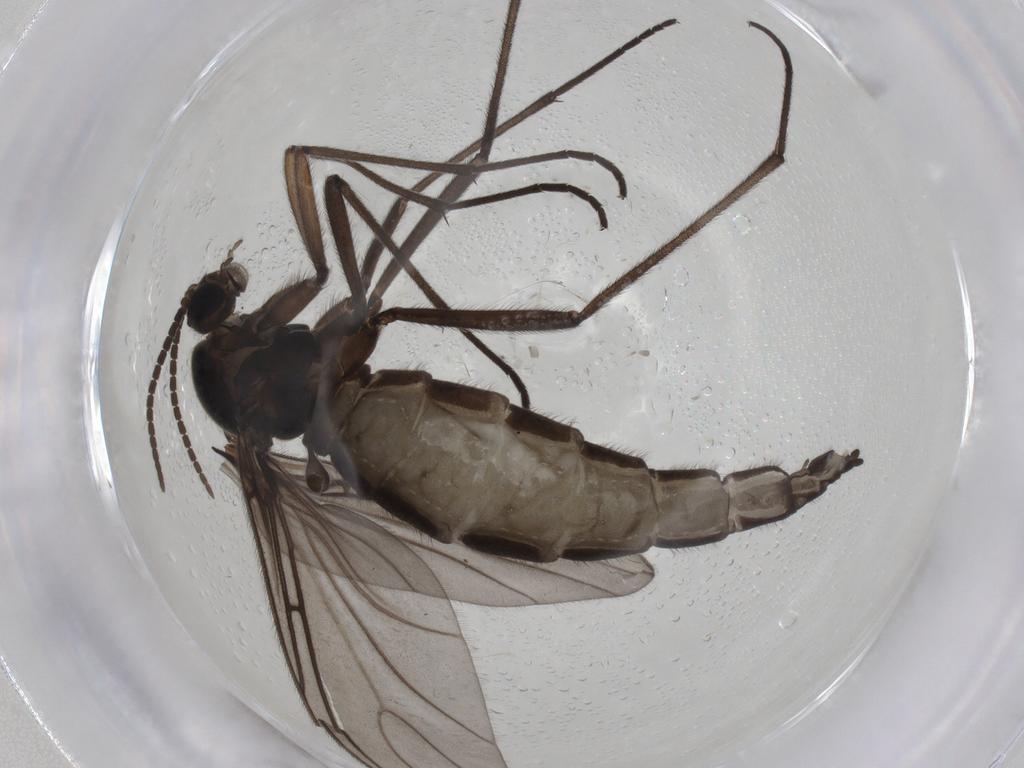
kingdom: Animalia
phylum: Arthropoda
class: Insecta
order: Diptera
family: Sciaridae
